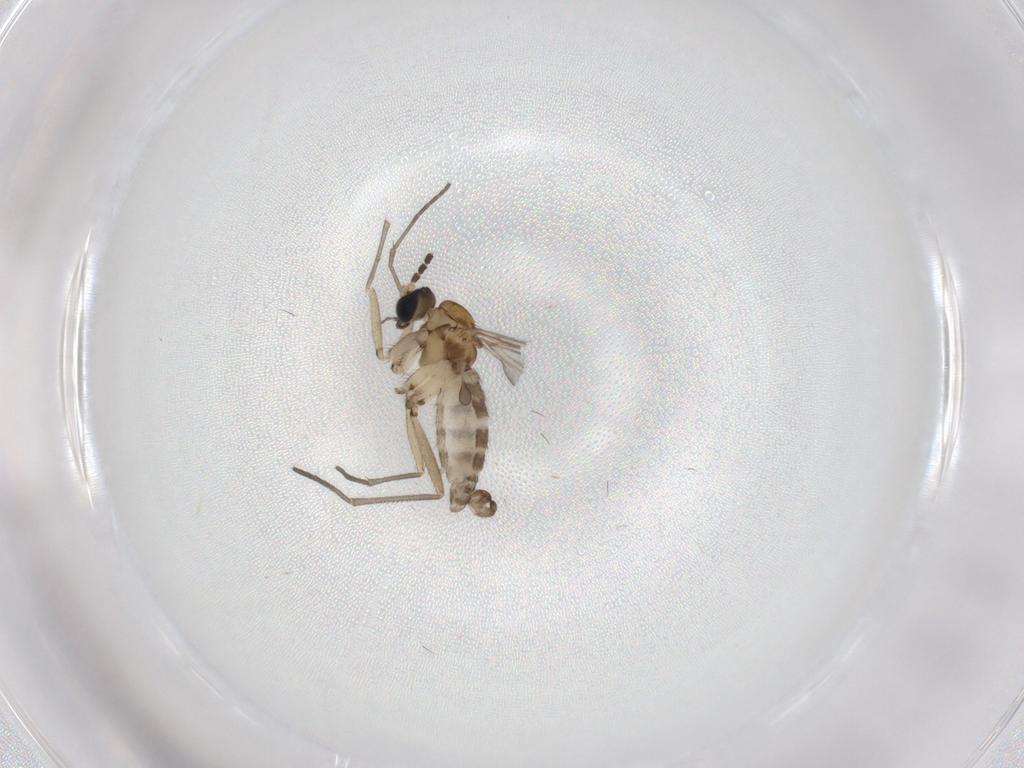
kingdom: Animalia
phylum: Arthropoda
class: Insecta
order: Diptera
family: Sciaridae
